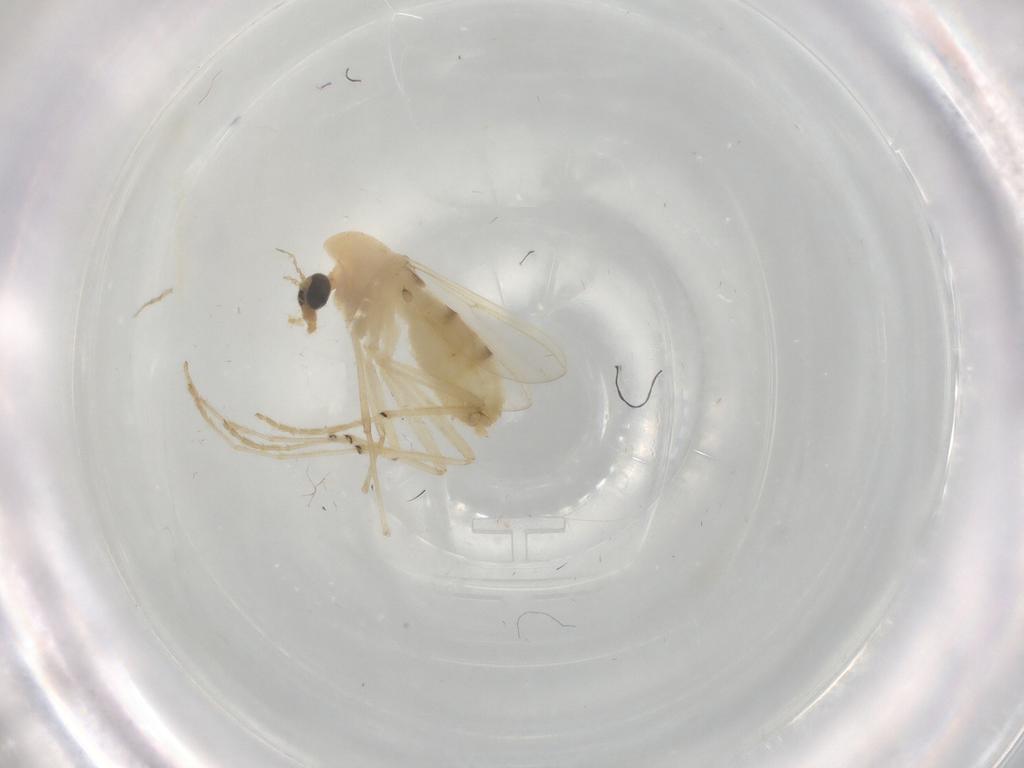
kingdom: Animalia
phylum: Arthropoda
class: Insecta
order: Diptera
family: Chironomidae
